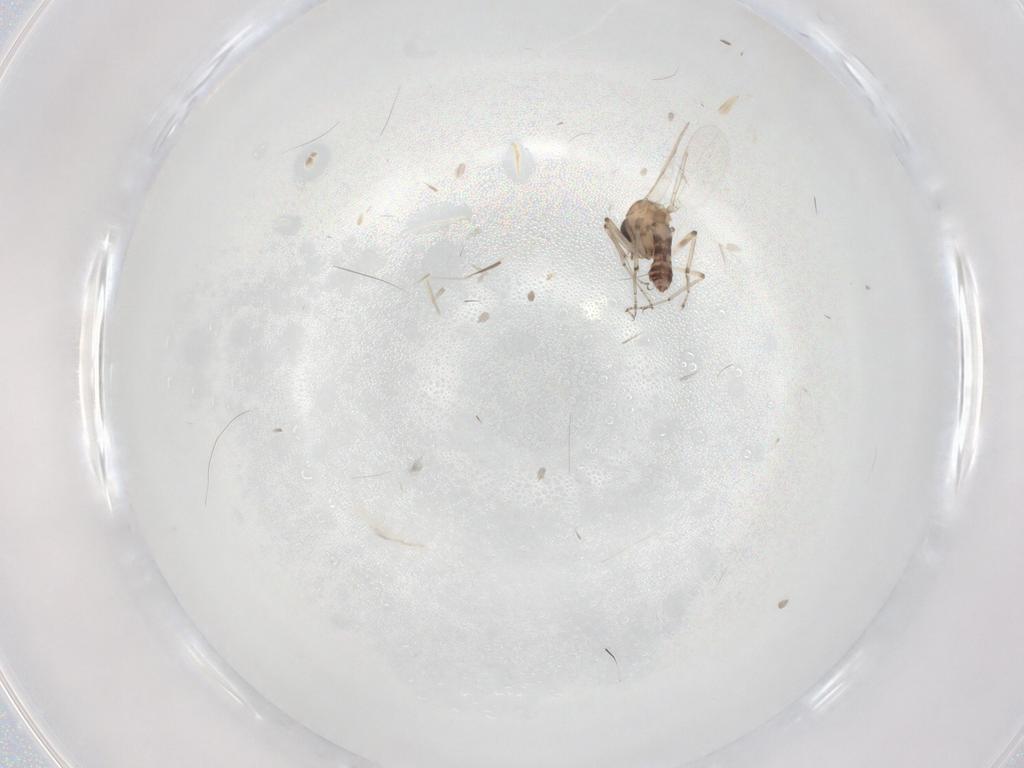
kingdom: Animalia
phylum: Arthropoda
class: Insecta
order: Diptera
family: Ceratopogonidae
